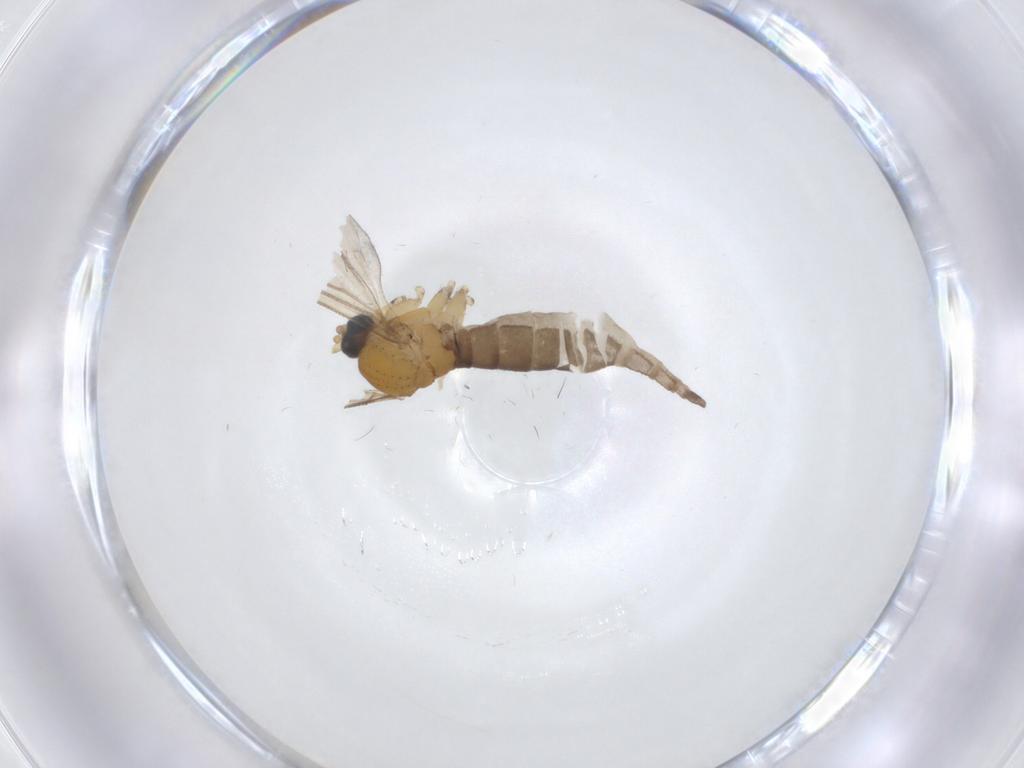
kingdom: Animalia
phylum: Arthropoda
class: Insecta
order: Diptera
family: Sciaridae
